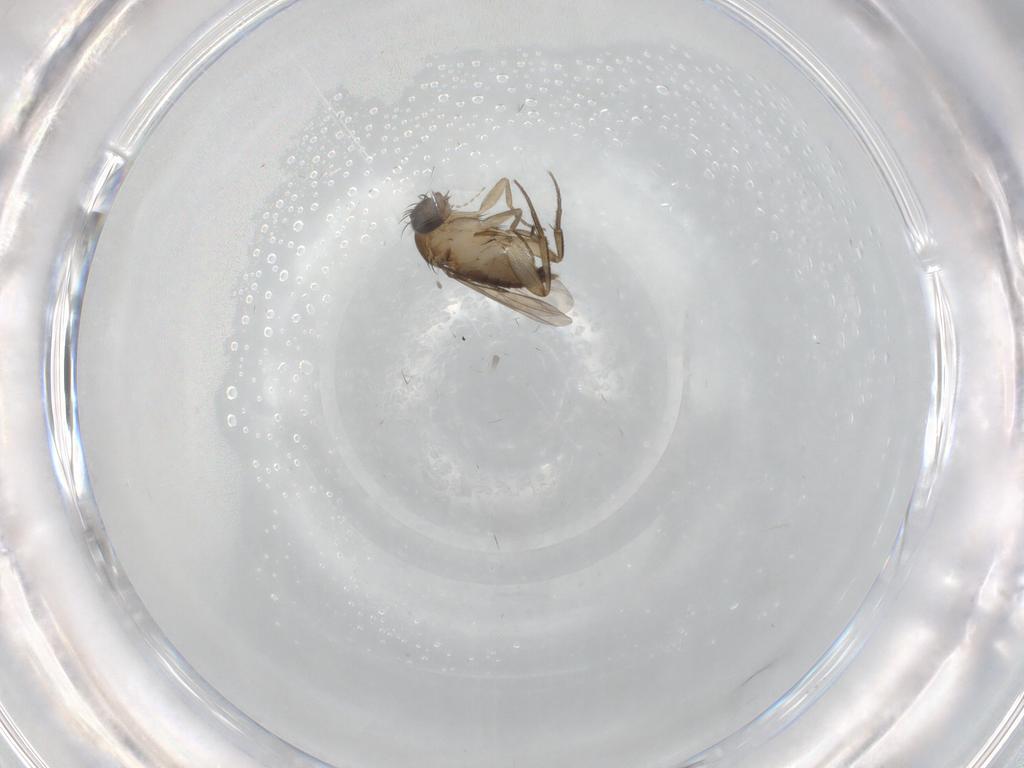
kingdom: Animalia
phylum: Arthropoda
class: Insecta
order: Diptera
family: Phoridae
